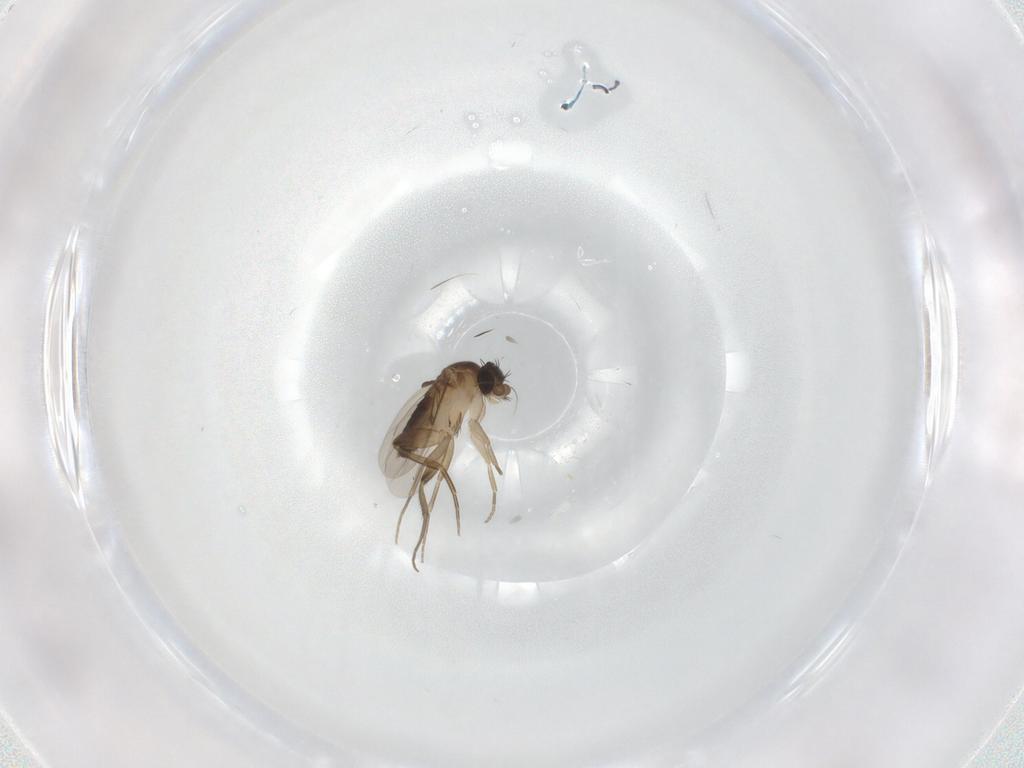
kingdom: Animalia
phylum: Arthropoda
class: Insecta
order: Diptera
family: Phoridae
